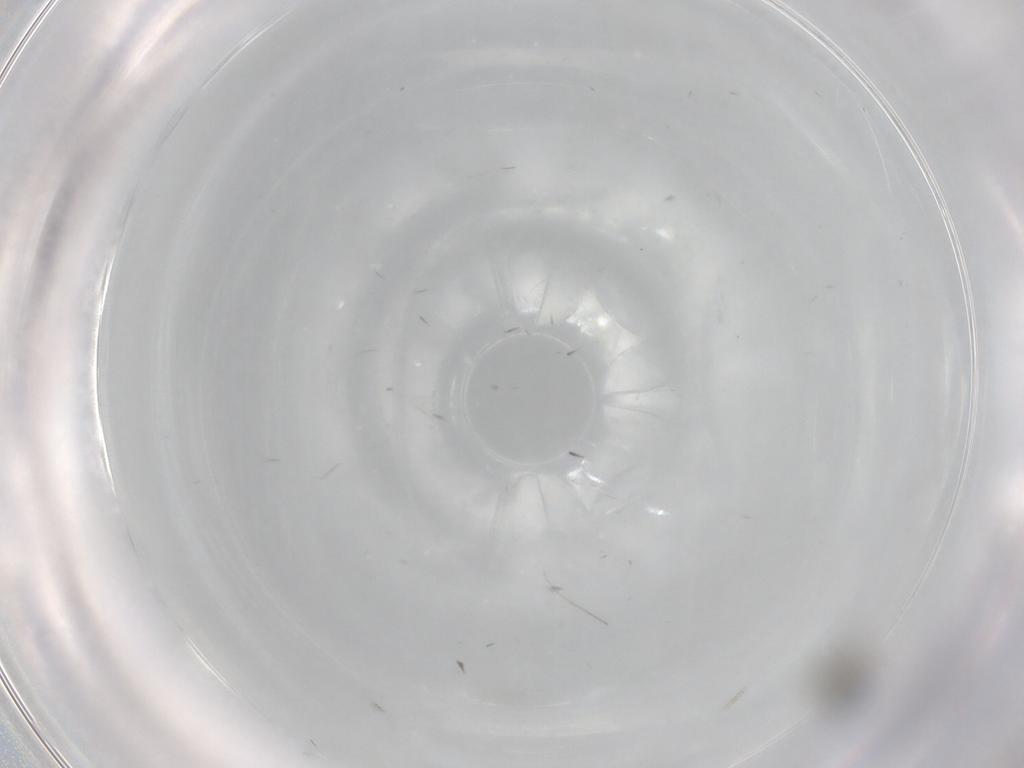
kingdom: Animalia
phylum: Arthropoda
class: Insecta
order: Diptera
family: Cecidomyiidae
